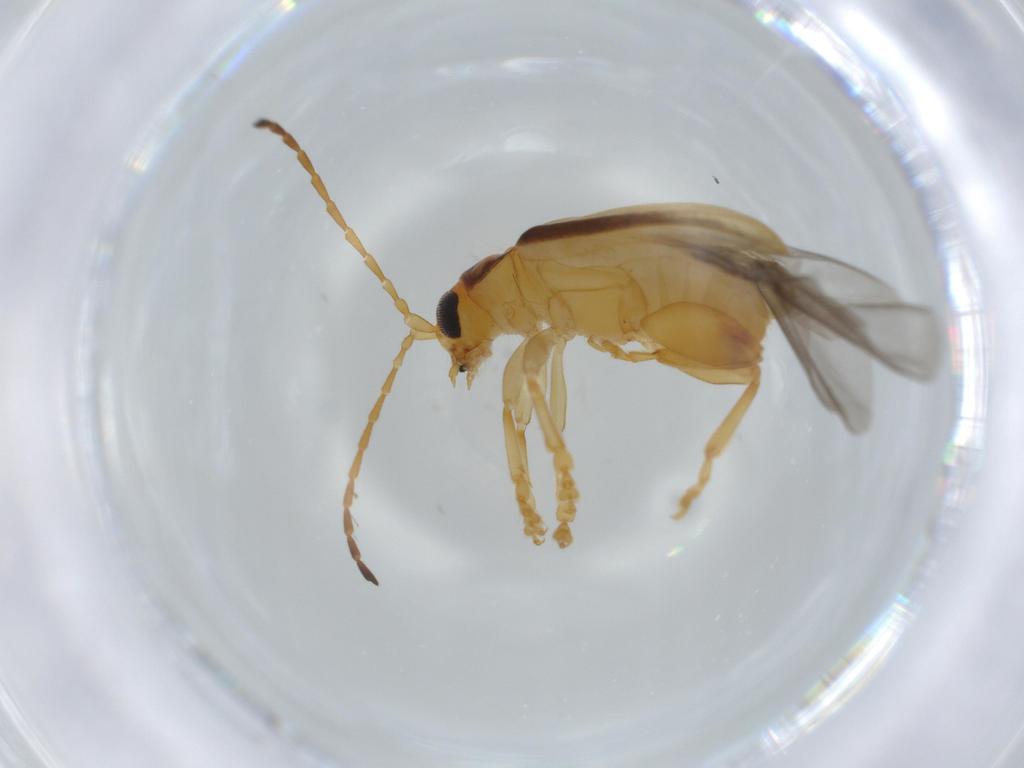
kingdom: Animalia
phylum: Arthropoda
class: Insecta
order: Coleoptera
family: Chrysomelidae
